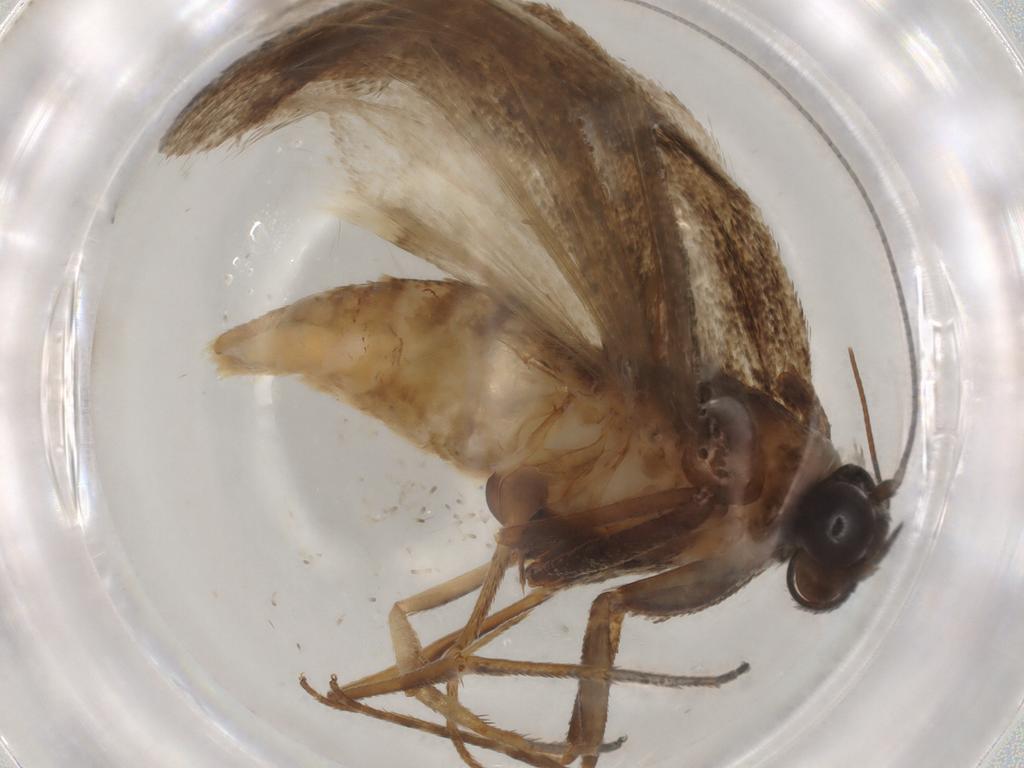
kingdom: Animalia
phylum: Arthropoda
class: Insecta
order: Lepidoptera
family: Pyralidae
